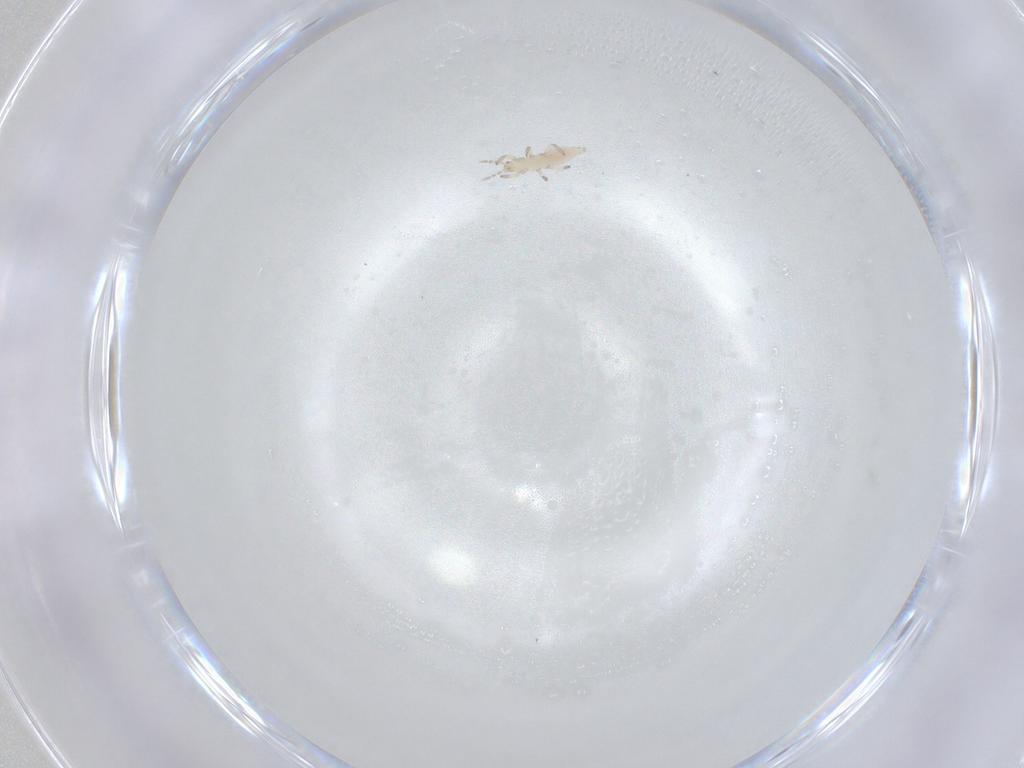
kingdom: Animalia
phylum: Arthropoda
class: Insecta
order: Thysanoptera
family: Aeolothripidae
